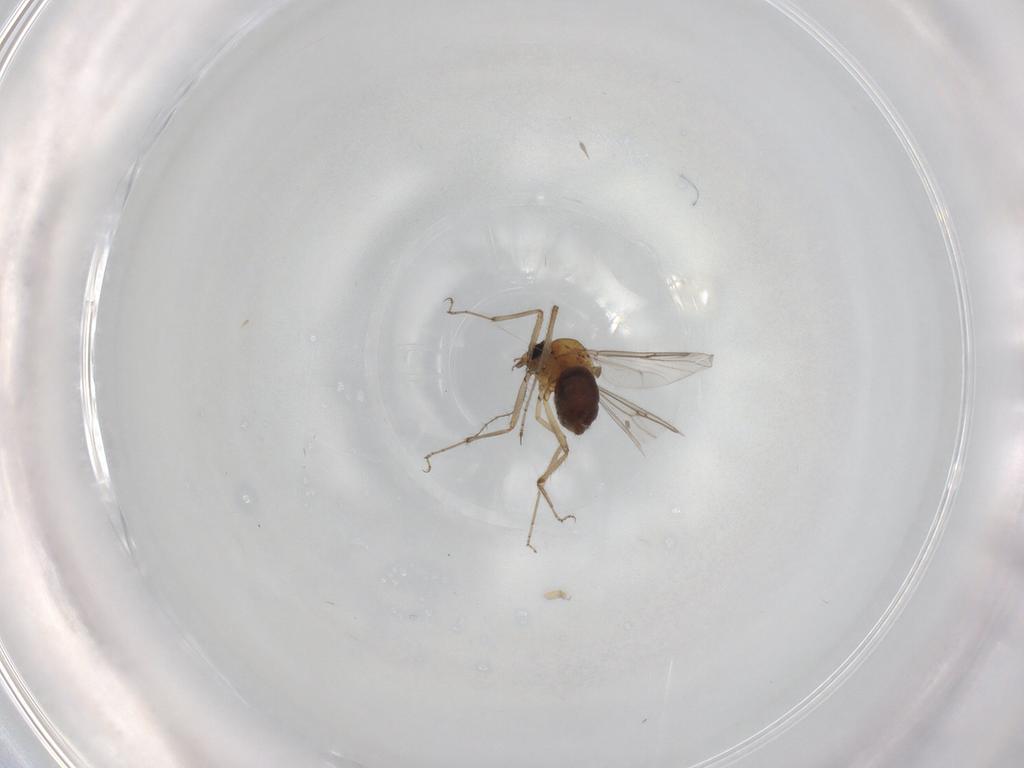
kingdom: Animalia
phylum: Arthropoda
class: Insecta
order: Diptera
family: Ceratopogonidae
